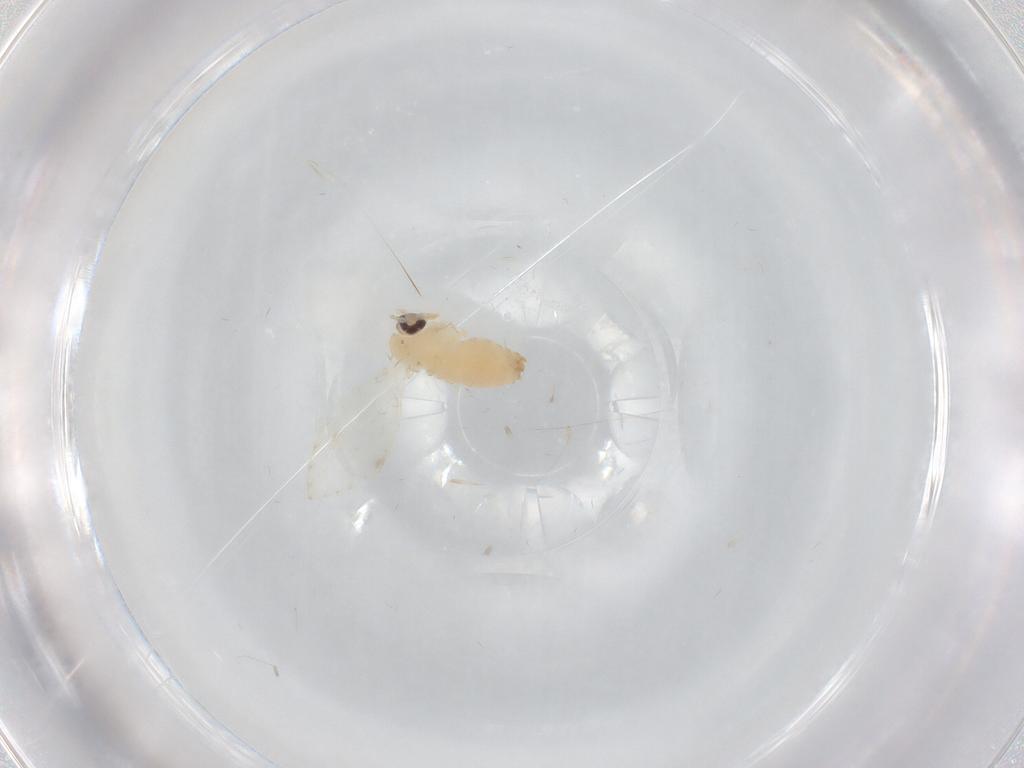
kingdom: Animalia
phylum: Arthropoda
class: Insecta
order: Diptera
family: Psychodidae
